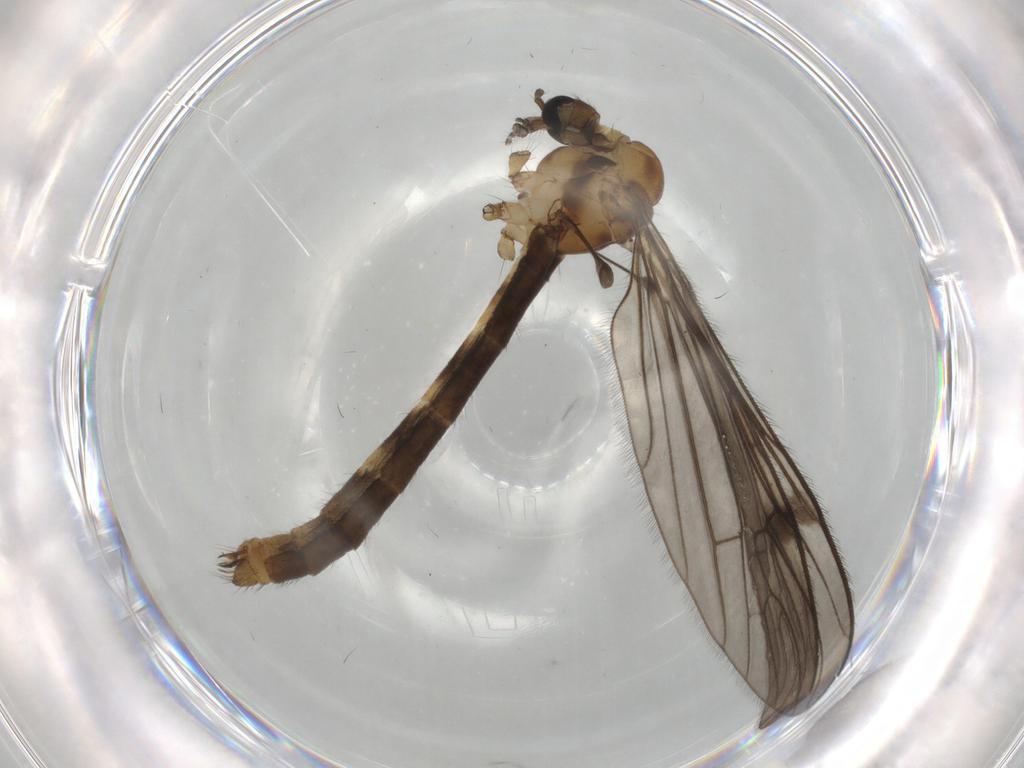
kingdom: Animalia
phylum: Arthropoda
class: Insecta
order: Diptera
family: Limoniidae
